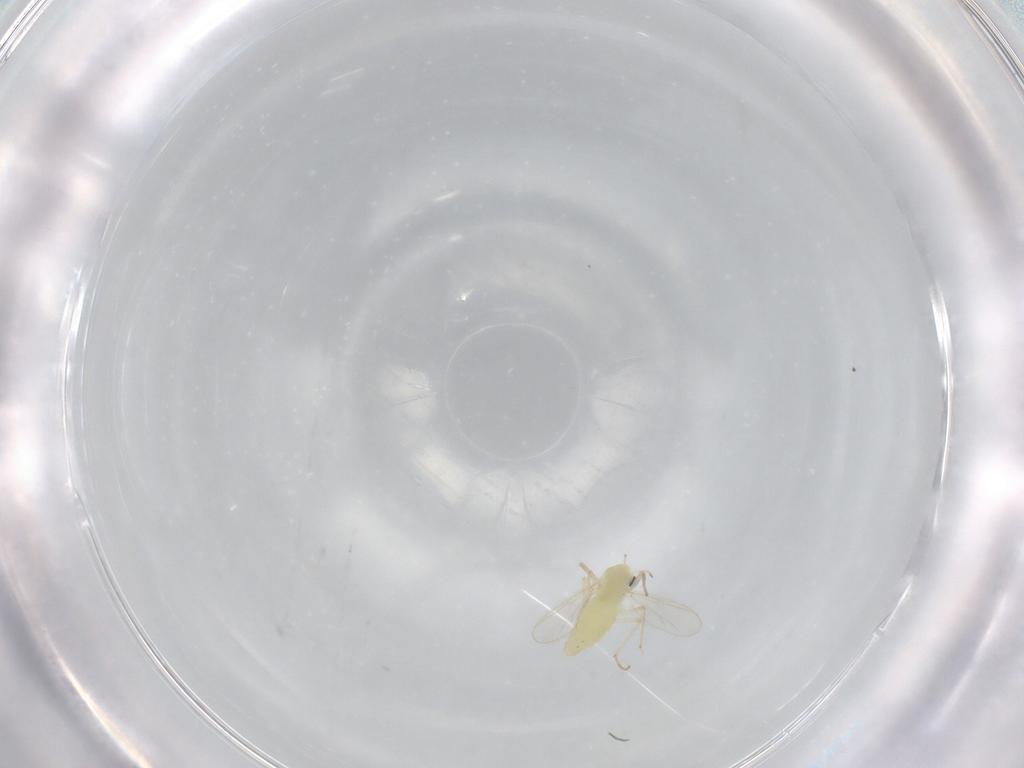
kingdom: Animalia
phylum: Arthropoda
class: Insecta
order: Diptera
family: Chironomidae
